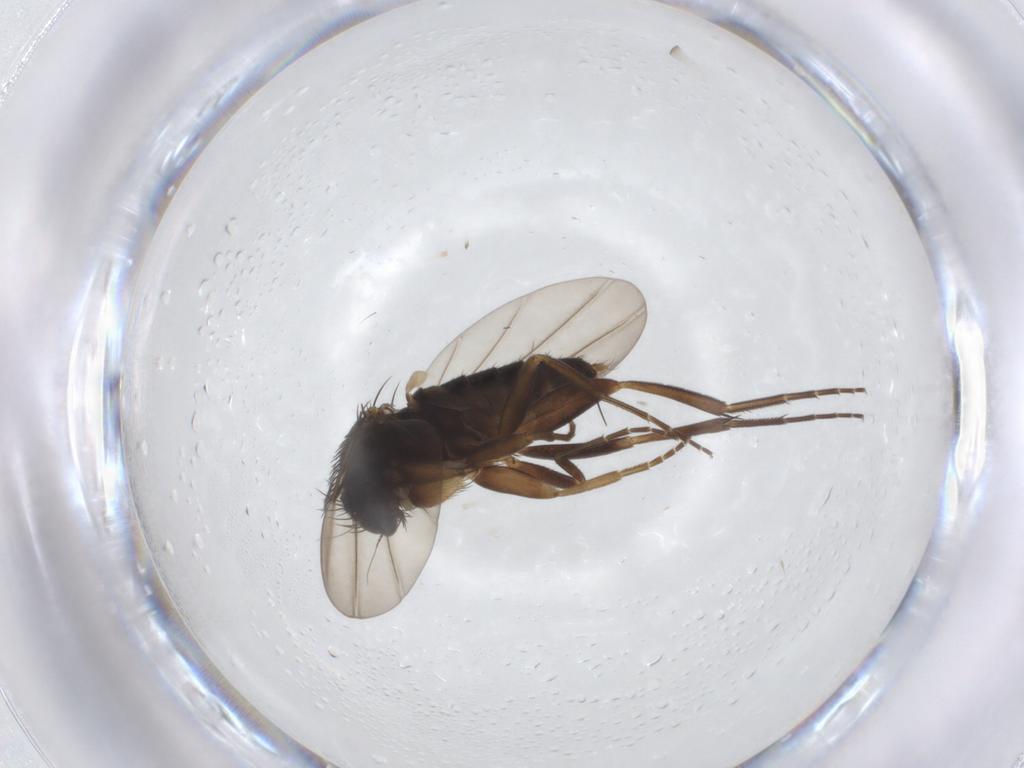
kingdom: Animalia
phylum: Arthropoda
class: Insecta
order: Diptera
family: Phoridae
